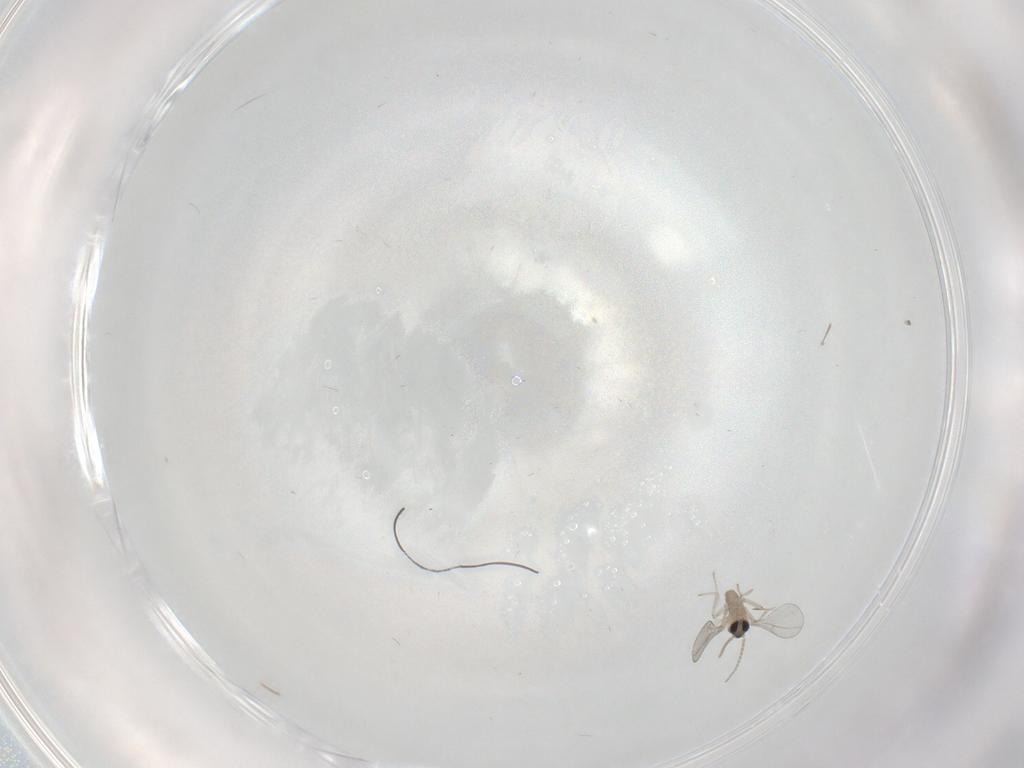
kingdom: Animalia
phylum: Arthropoda
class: Insecta
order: Diptera
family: Cecidomyiidae
